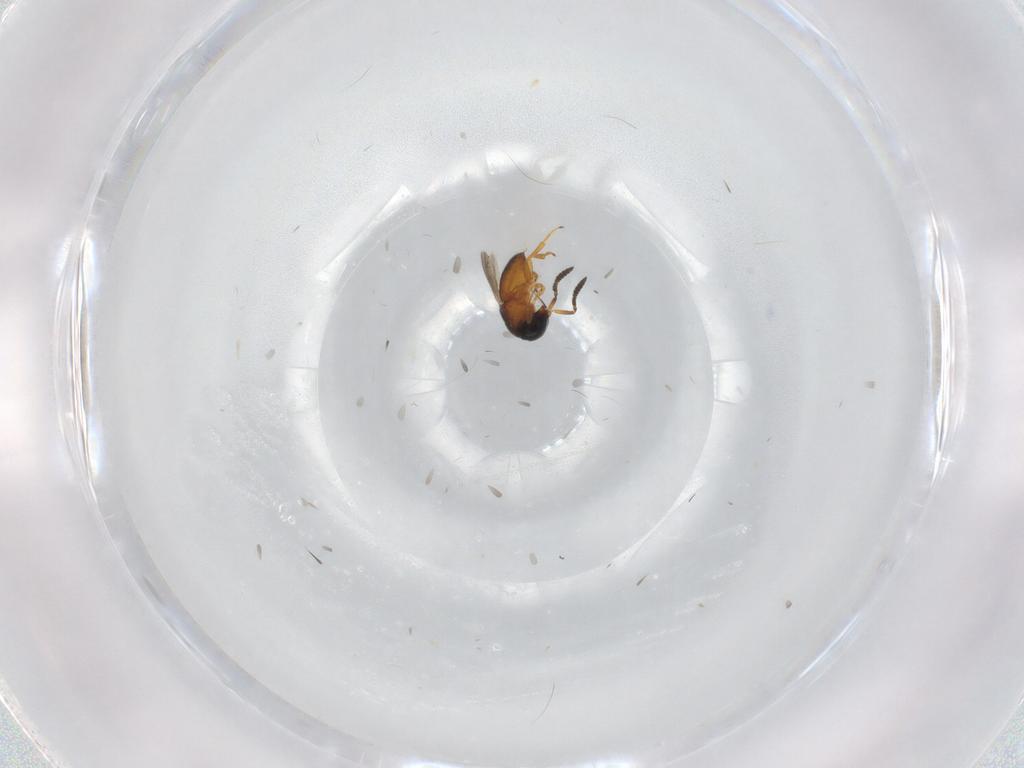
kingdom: Animalia
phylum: Arthropoda
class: Insecta
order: Hymenoptera
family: Scelionidae
